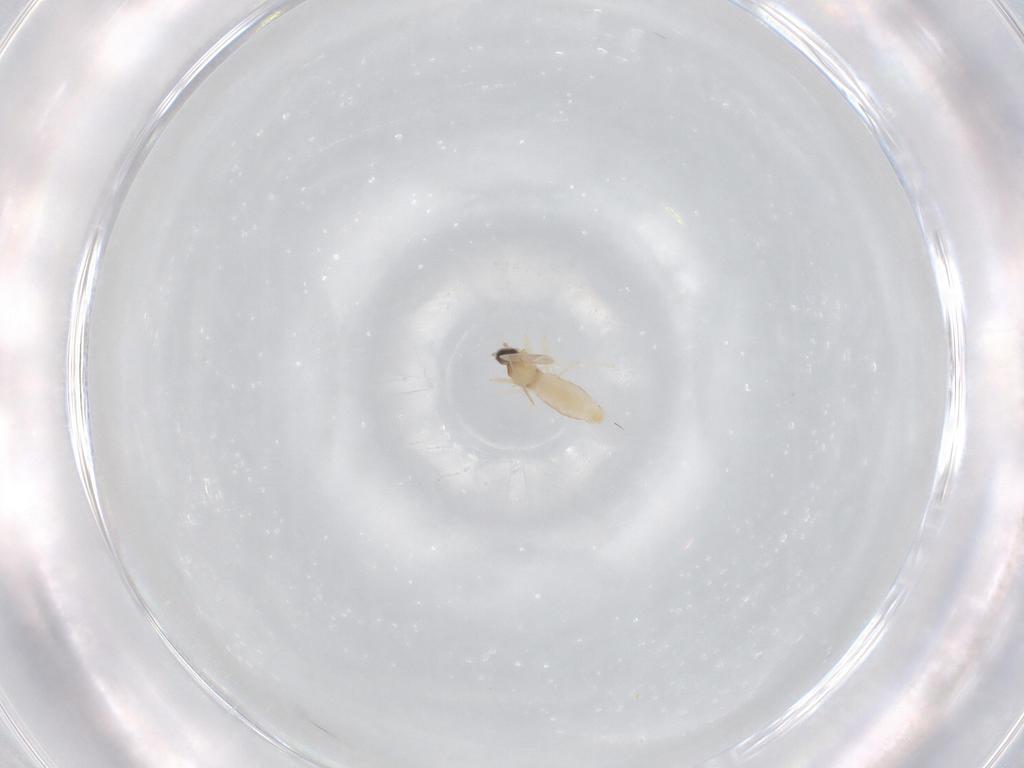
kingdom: Animalia
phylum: Arthropoda
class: Insecta
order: Diptera
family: Cecidomyiidae
